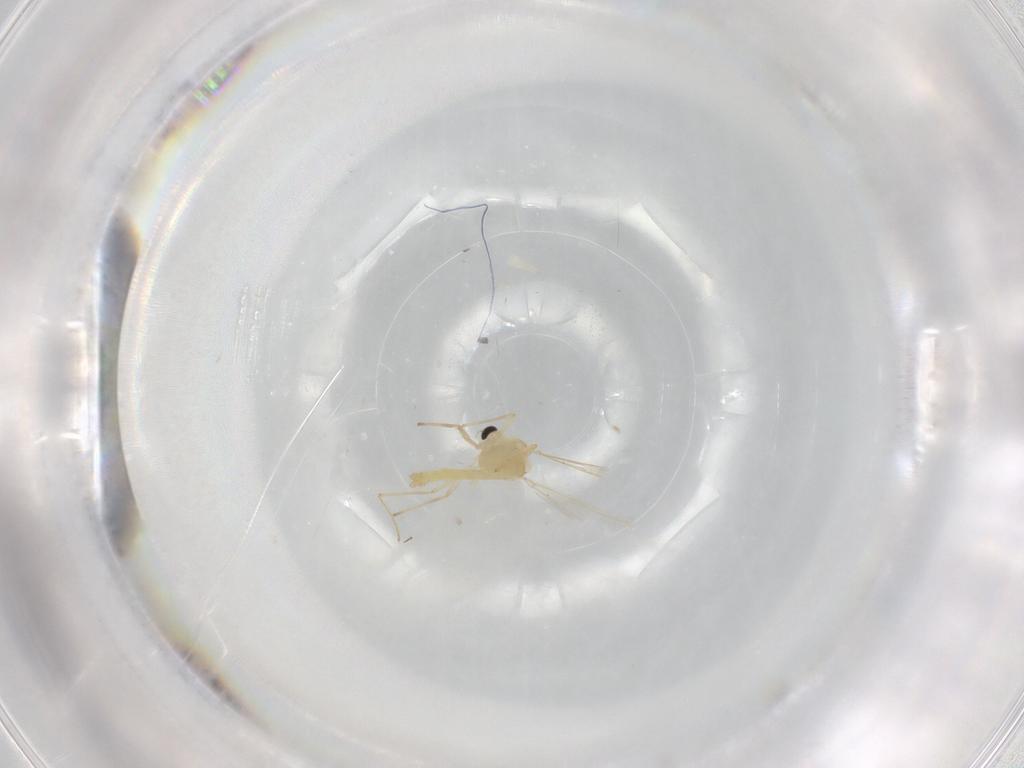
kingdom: Animalia
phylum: Arthropoda
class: Insecta
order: Diptera
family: Chironomidae
